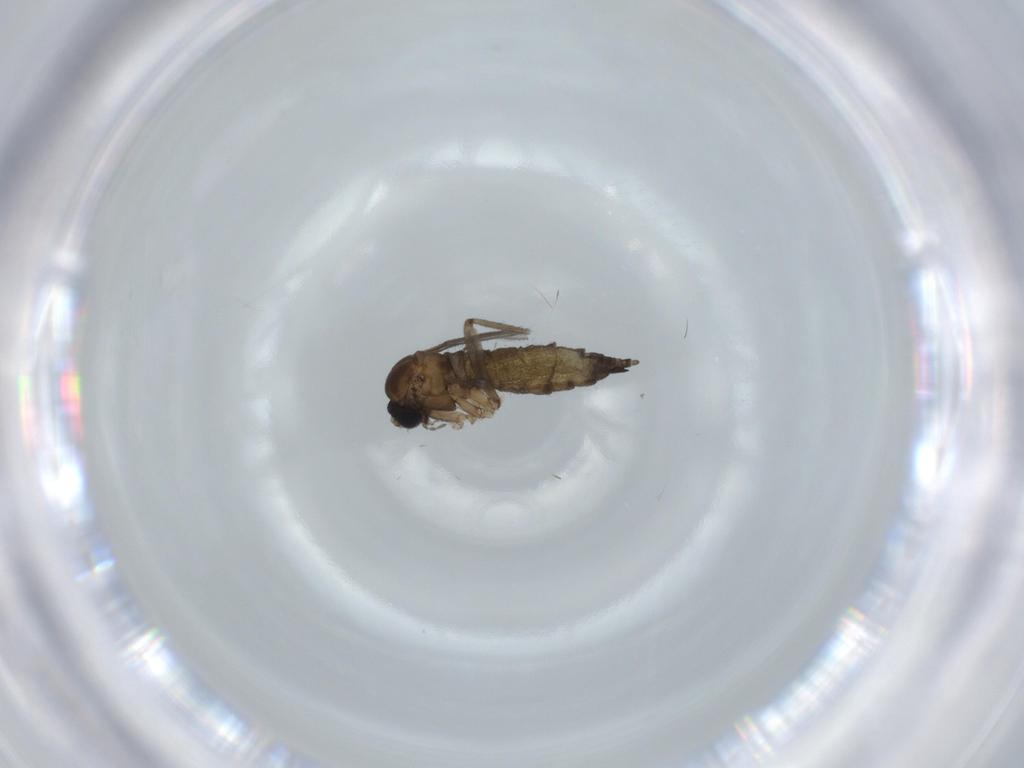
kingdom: Animalia
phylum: Arthropoda
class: Insecta
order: Diptera
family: Sciaridae
